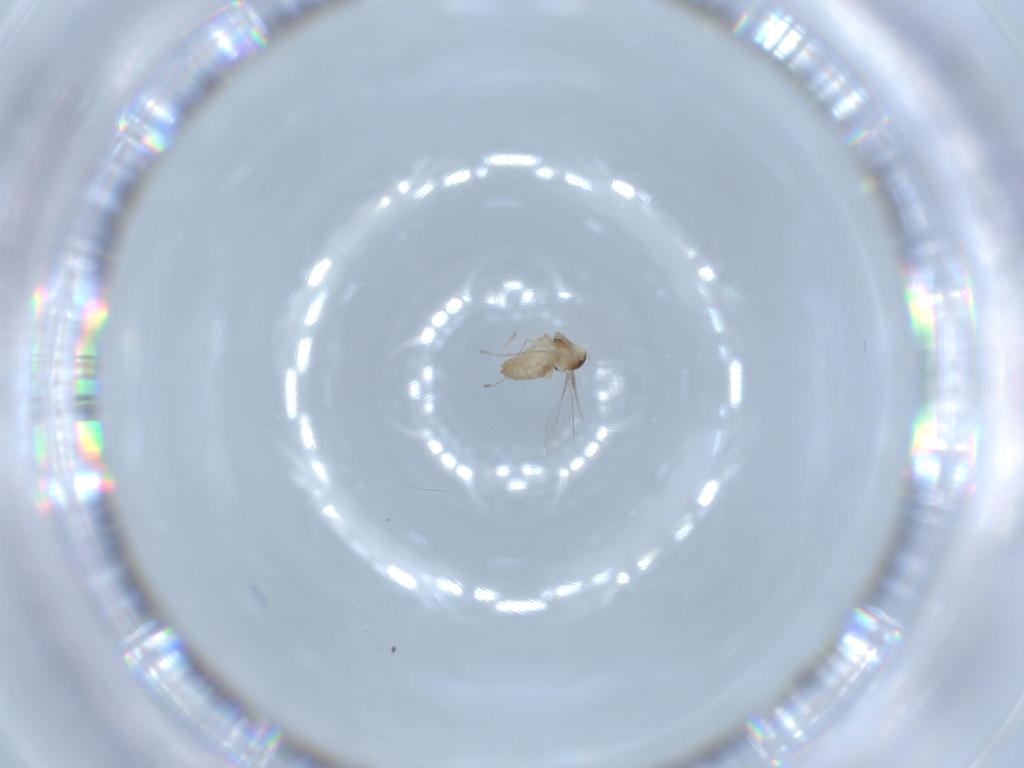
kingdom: Animalia
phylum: Arthropoda
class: Insecta
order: Diptera
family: Cecidomyiidae
